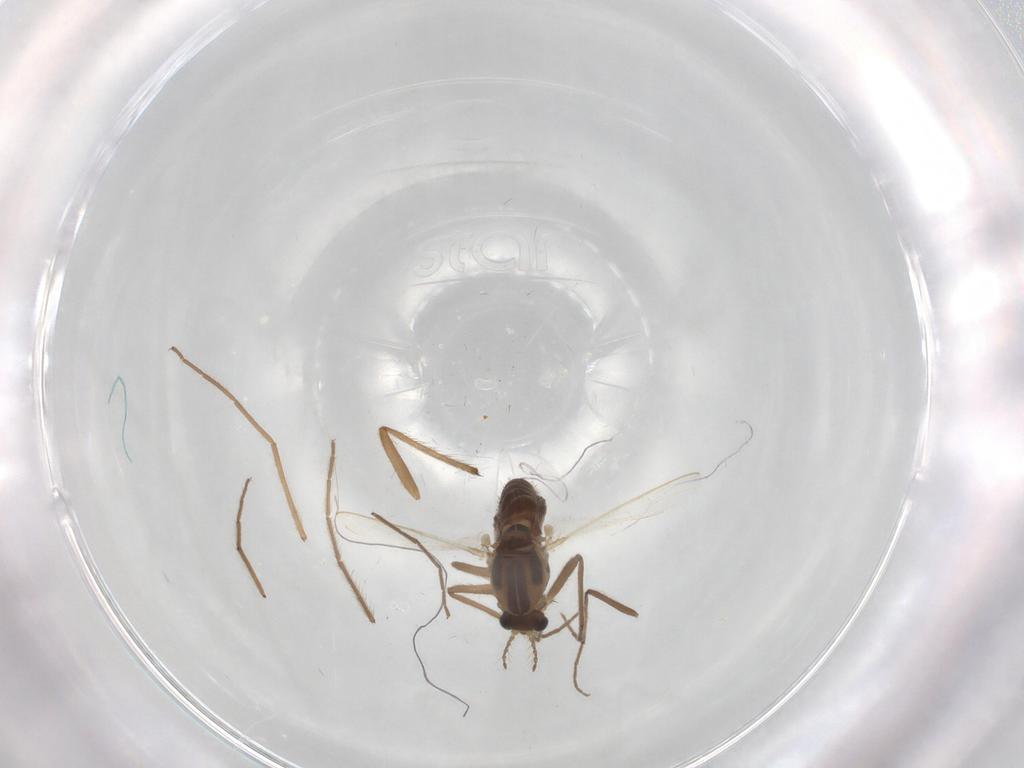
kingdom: Animalia
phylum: Arthropoda
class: Insecta
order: Diptera
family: Chironomidae
